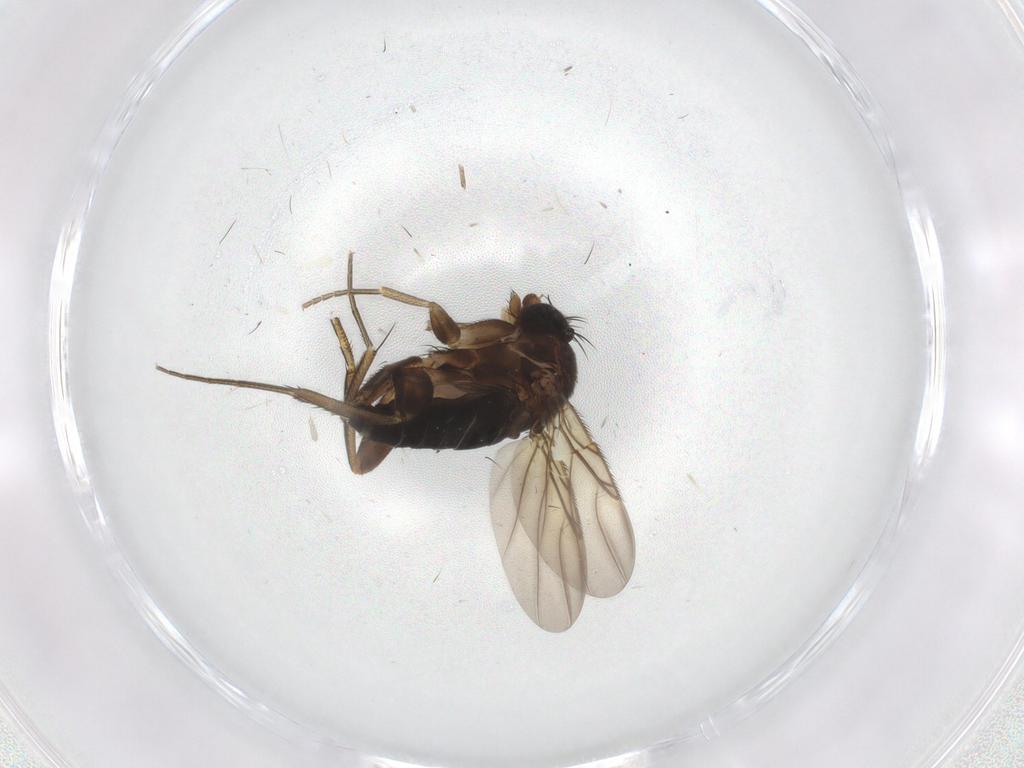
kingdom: Animalia
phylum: Arthropoda
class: Insecta
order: Diptera
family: Phoridae
